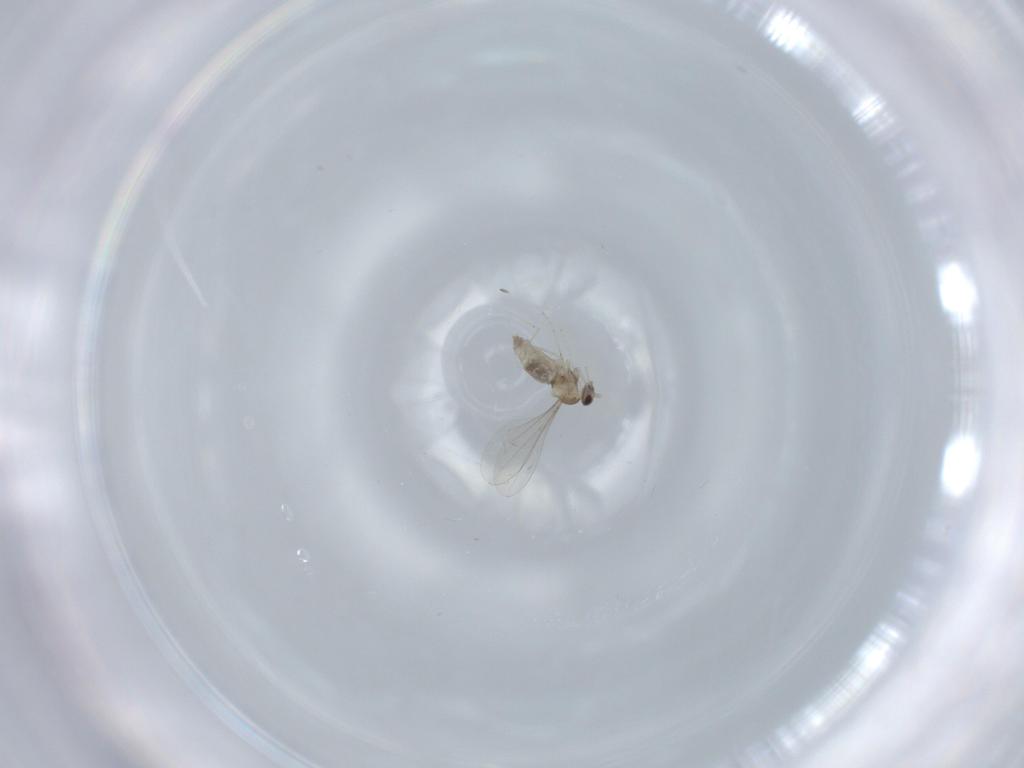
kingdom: Animalia
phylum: Arthropoda
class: Insecta
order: Diptera
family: Cecidomyiidae
